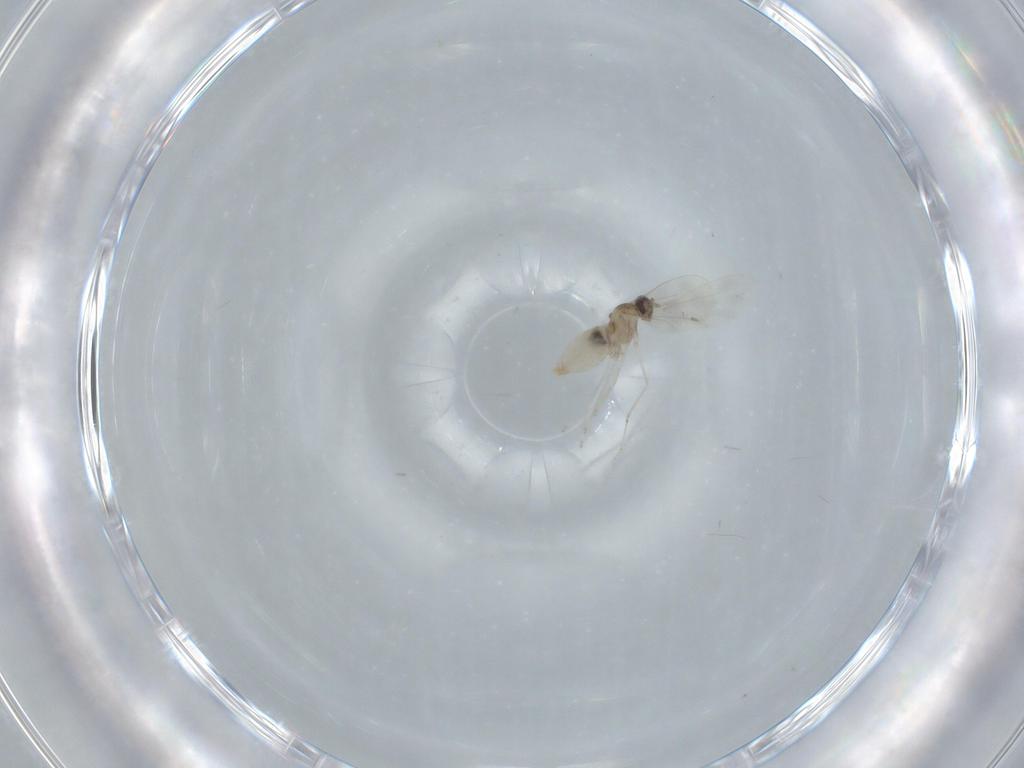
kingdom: Animalia
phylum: Arthropoda
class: Insecta
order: Diptera
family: Cecidomyiidae
